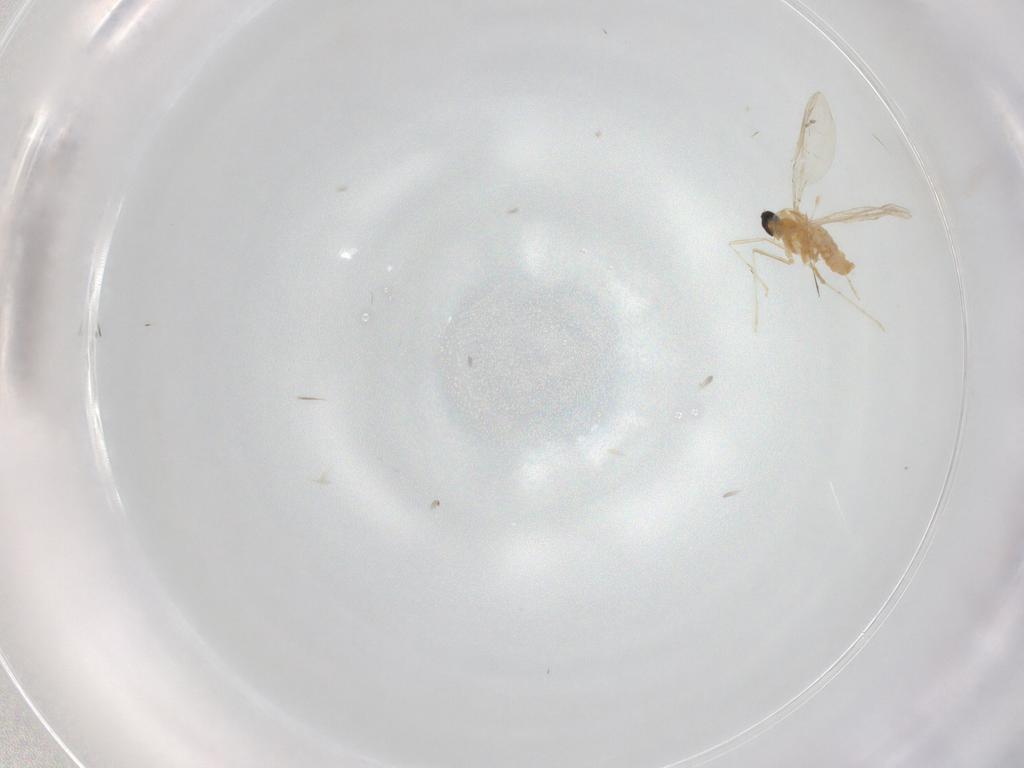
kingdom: Animalia
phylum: Arthropoda
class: Insecta
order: Diptera
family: Cecidomyiidae
